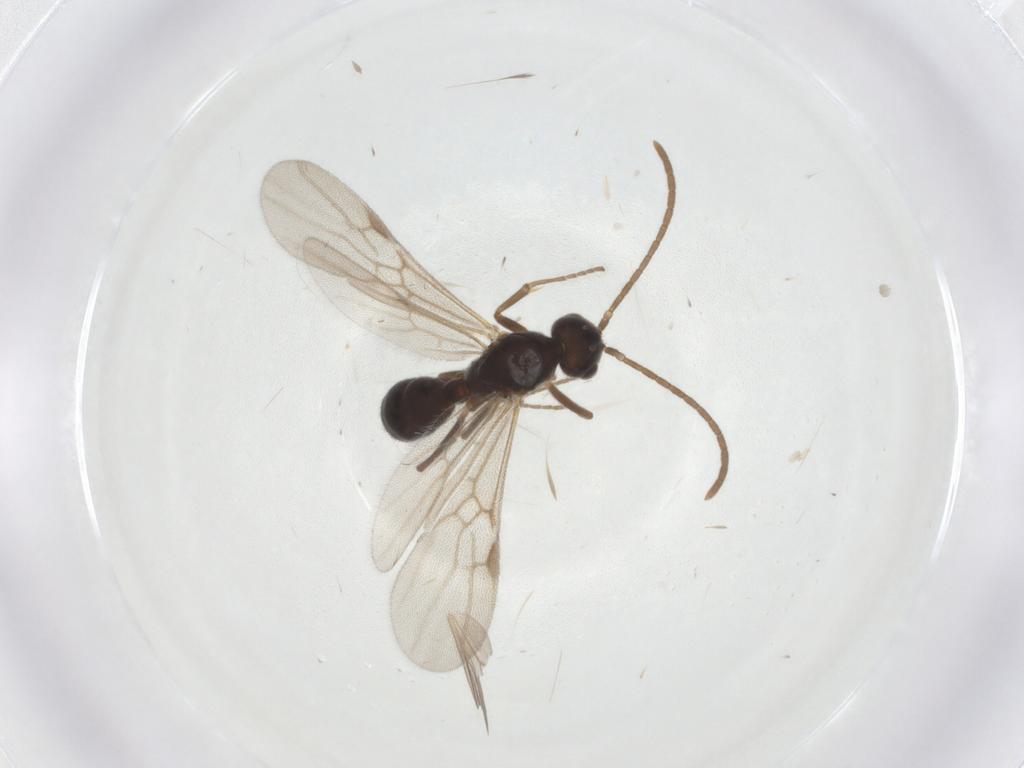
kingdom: Animalia
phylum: Arthropoda
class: Insecta
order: Hymenoptera
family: Formicidae
